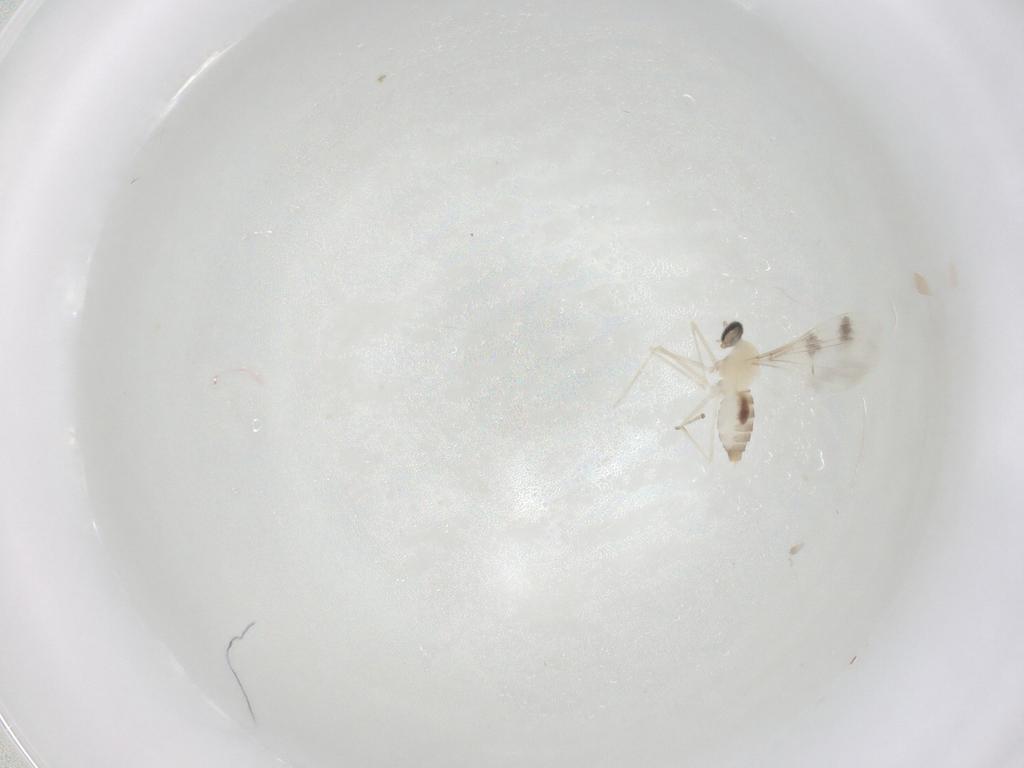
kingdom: Animalia
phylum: Arthropoda
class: Insecta
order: Diptera
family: Cecidomyiidae
